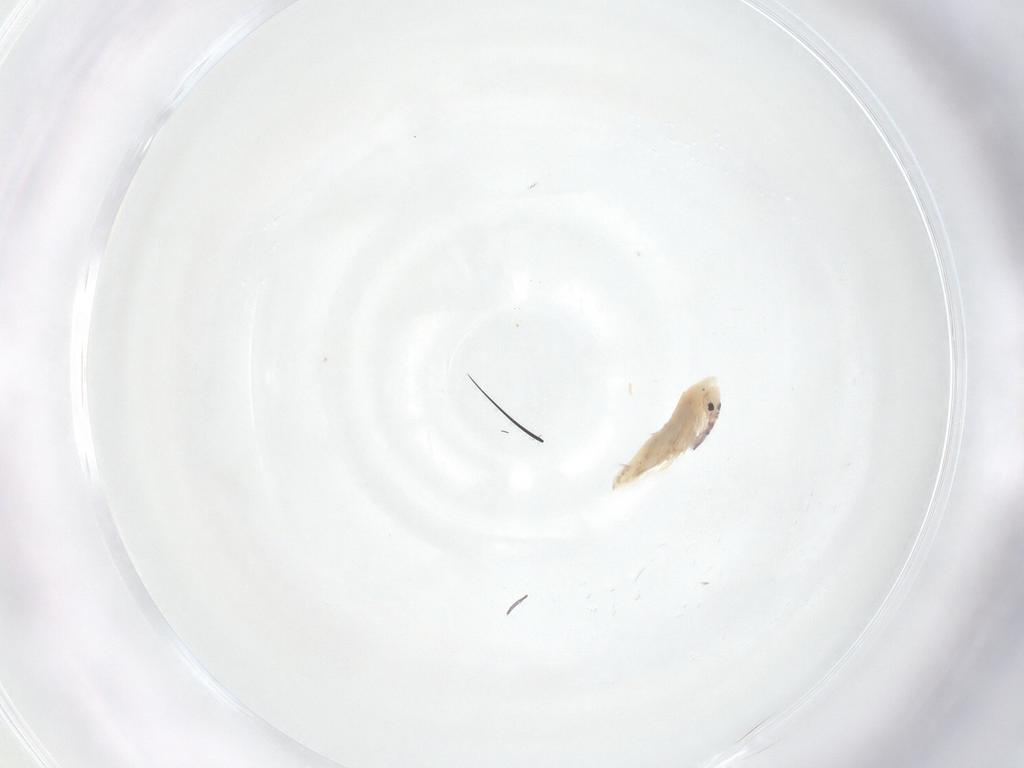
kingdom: Animalia
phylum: Arthropoda
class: Collembola
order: Entomobryomorpha
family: Entomobryidae
